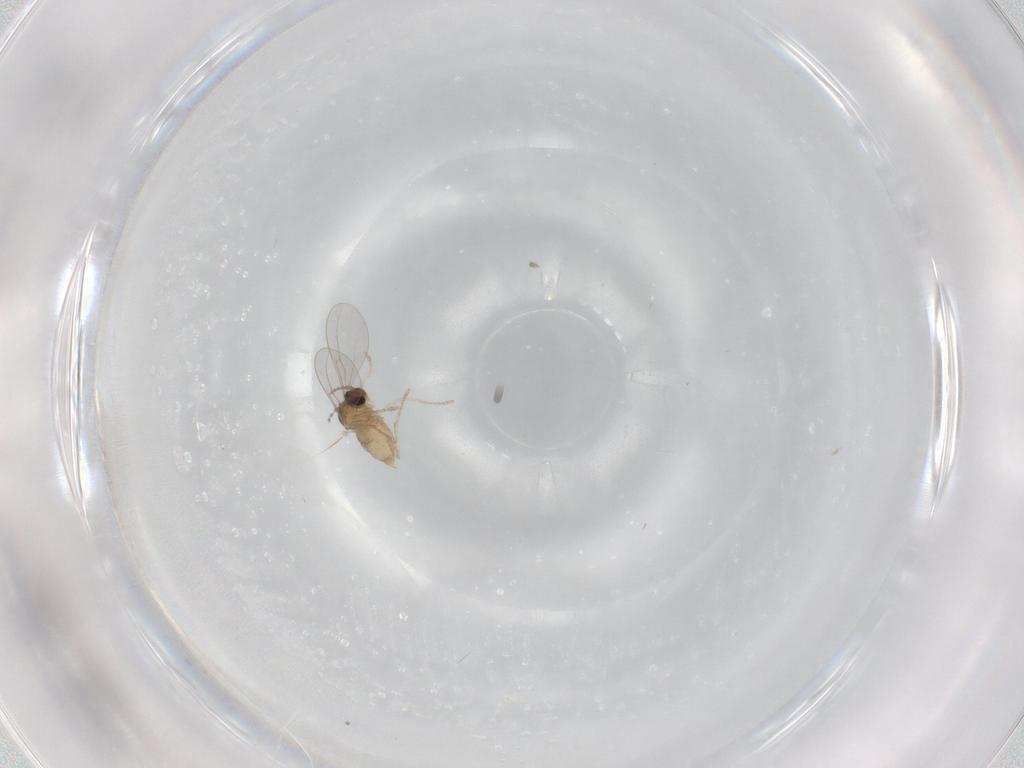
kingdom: Animalia
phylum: Arthropoda
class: Insecta
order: Diptera
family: Cecidomyiidae
